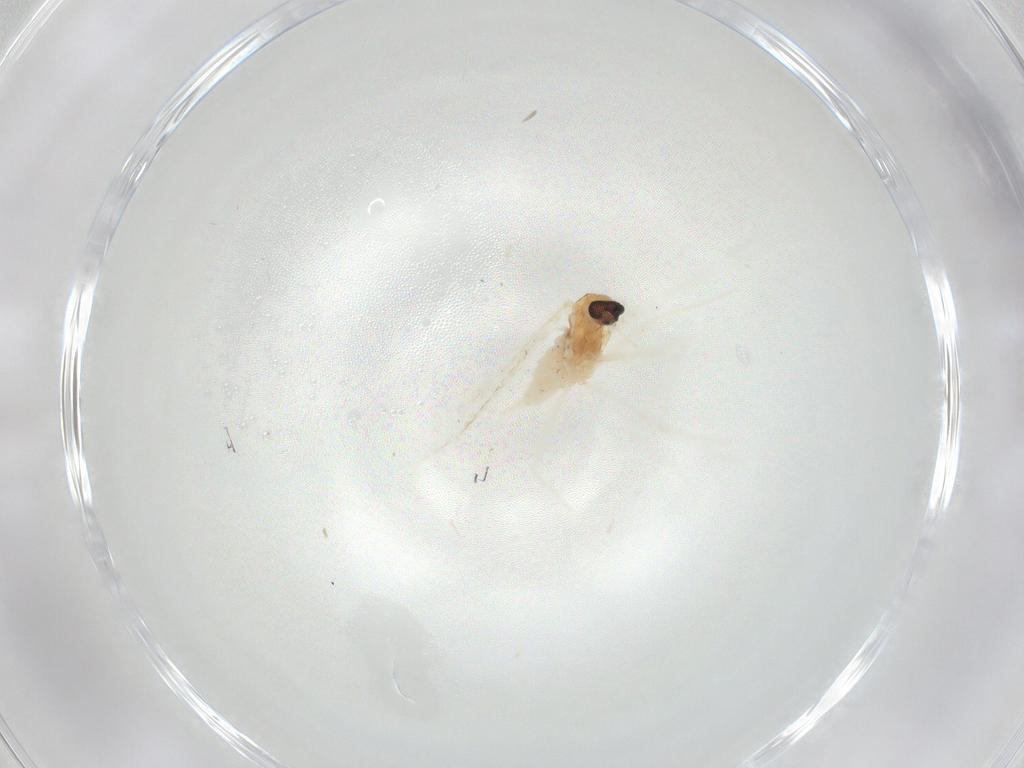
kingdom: Animalia
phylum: Arthropoda
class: Insecta
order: Diptera
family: Cecidomyiidae
